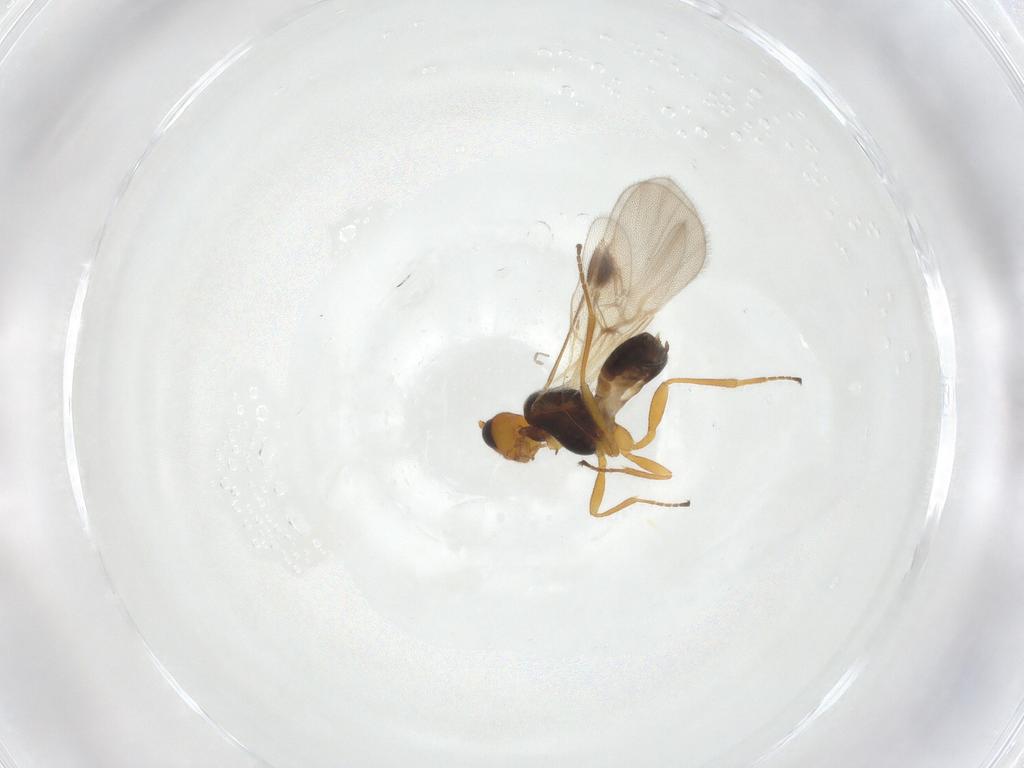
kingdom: Animalia
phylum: Arthropoda
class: Insecta
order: Hymenoptera
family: Braconidae
